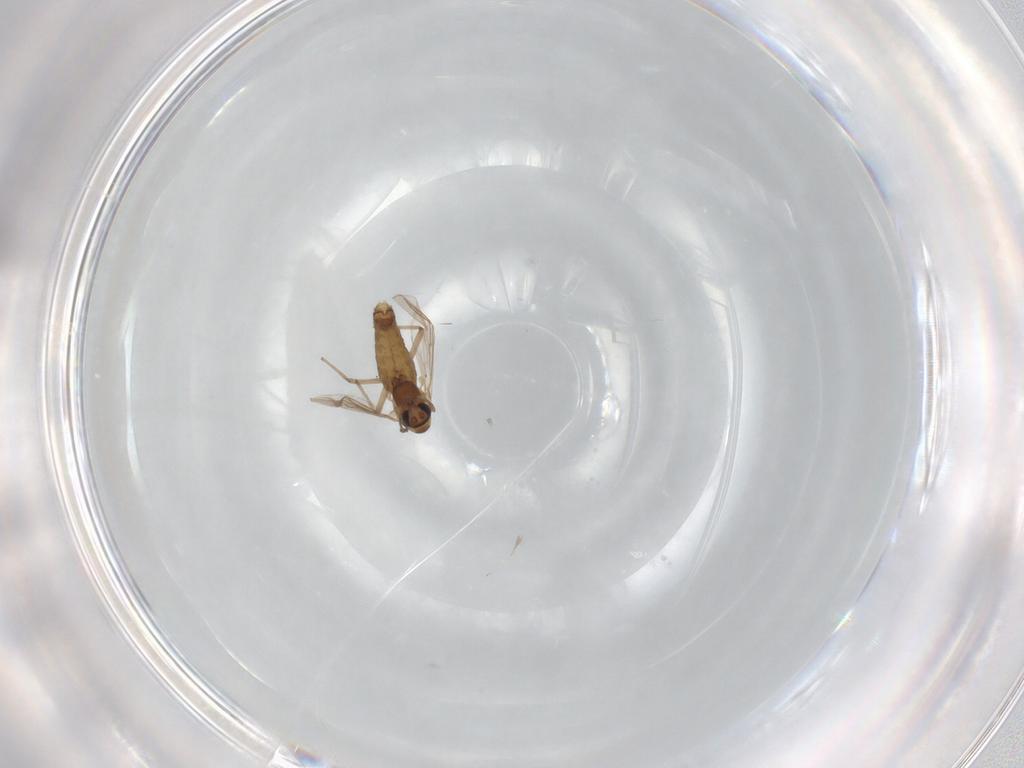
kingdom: Animalia
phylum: Arthropoda
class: Insecta
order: Diptera
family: Chironomidae
